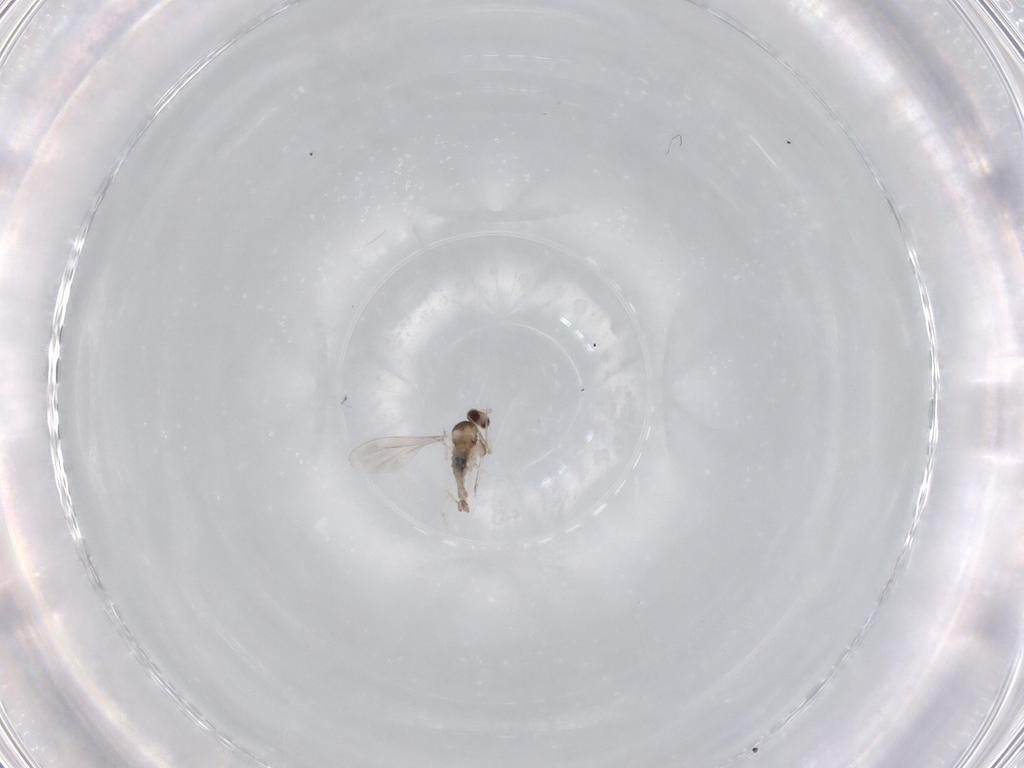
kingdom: Animalia
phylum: Arthropoda
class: Insecta
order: Diptera
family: Cecidomyiidae
